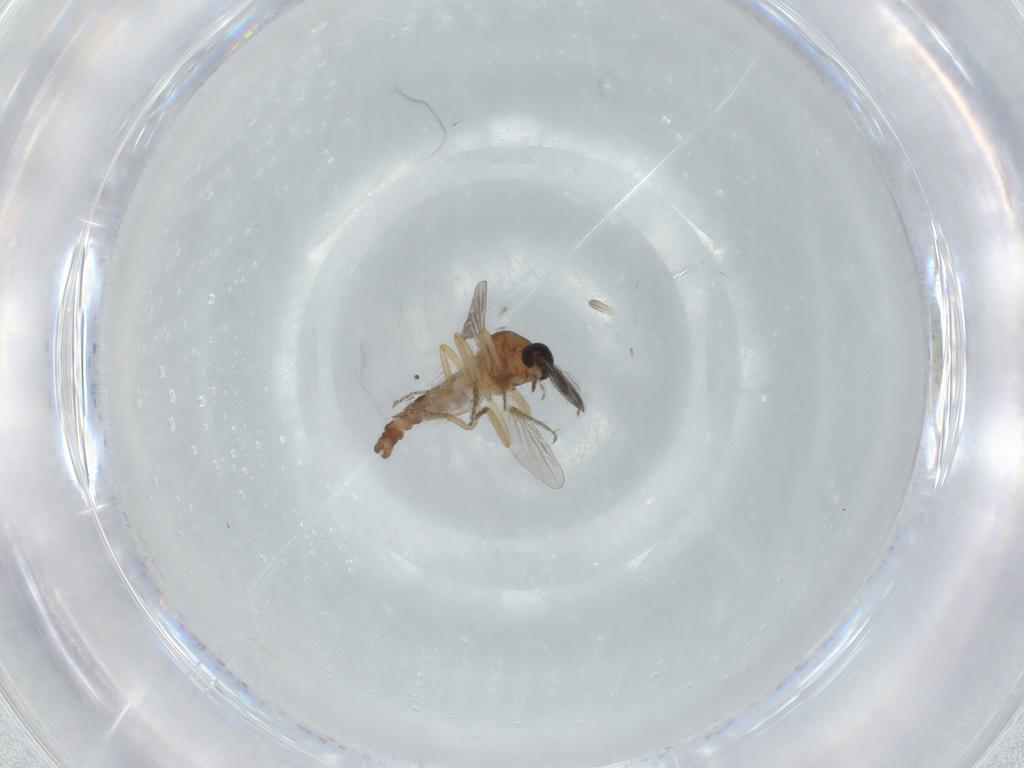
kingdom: Animalia
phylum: Arthropoda
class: Insecta
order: Diptera
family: Ceratopogonidae
